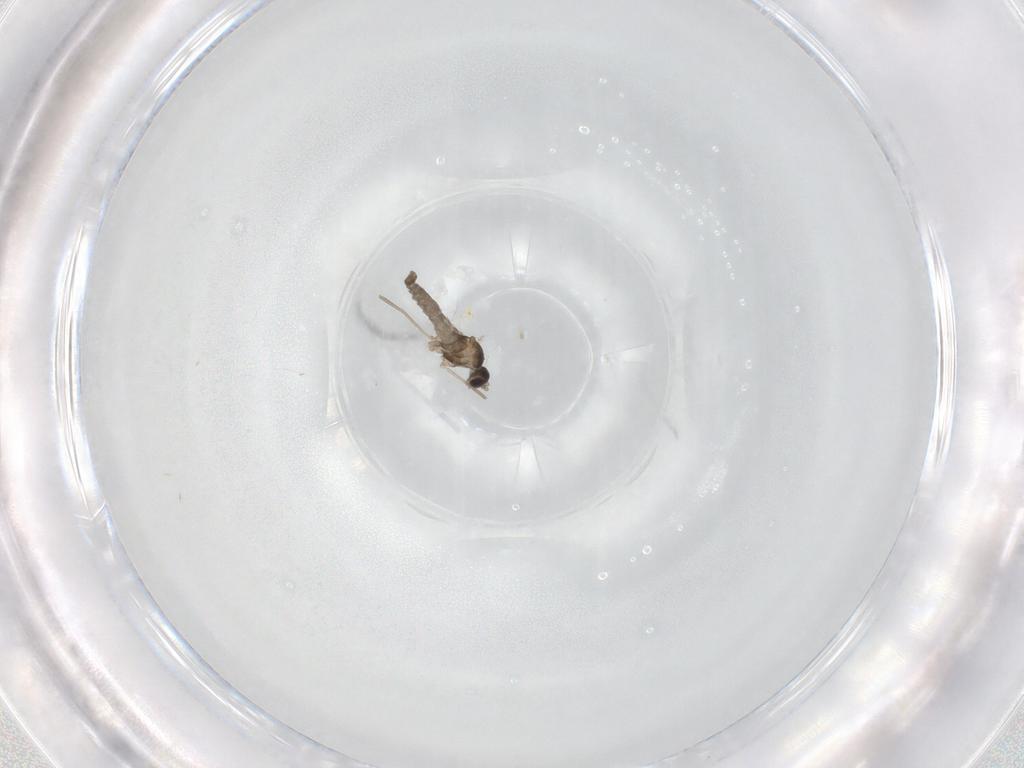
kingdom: Animalia
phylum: Arthropoda
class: Insecta
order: Diptera
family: Cecidomyiidae
